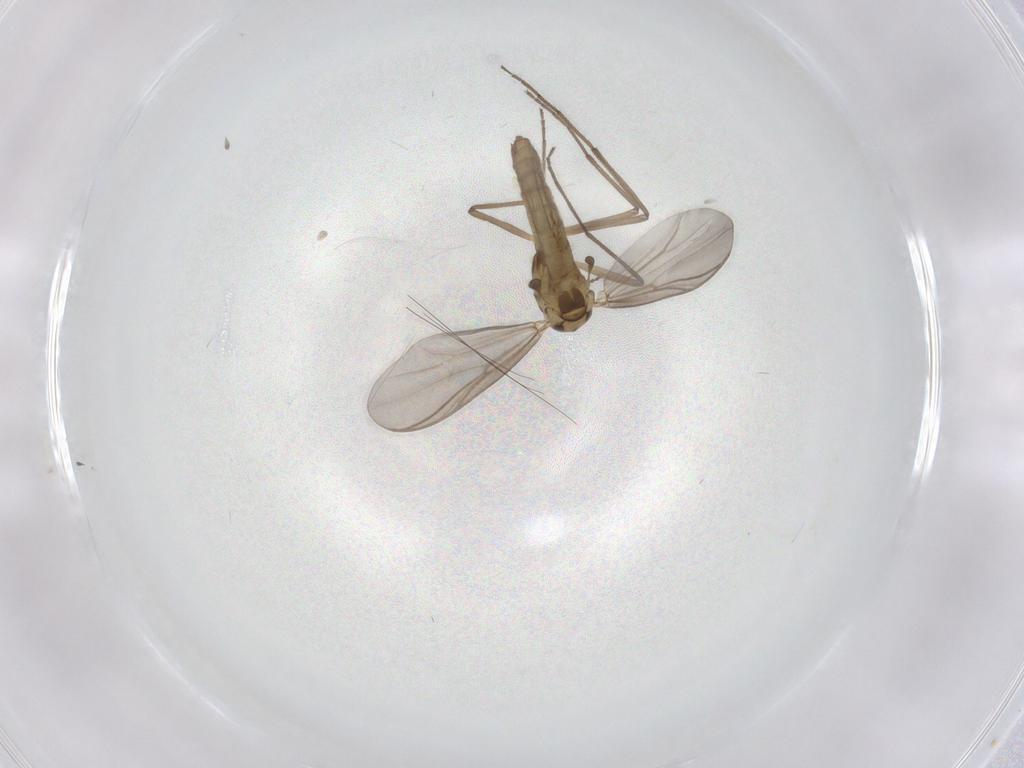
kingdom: Animalia
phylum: Arthropoda
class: Insecta
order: Diptera
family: Chironomidae
